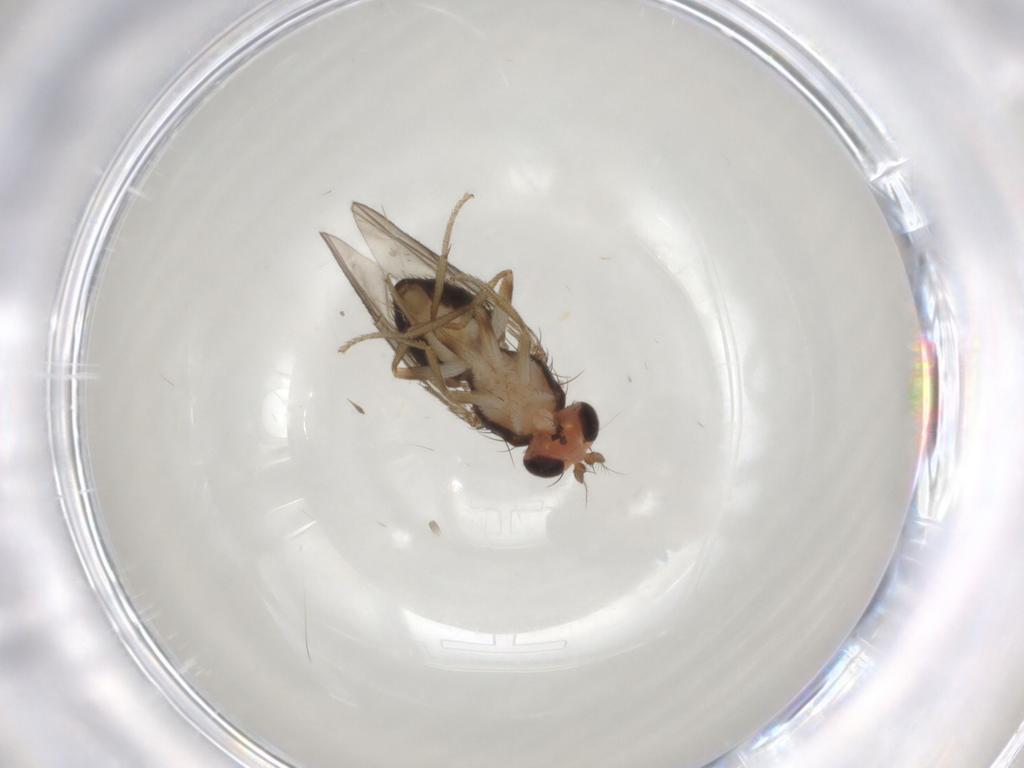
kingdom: Animalia
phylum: Arthropoda
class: Insecta
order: Diptera
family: Drosophilidae
